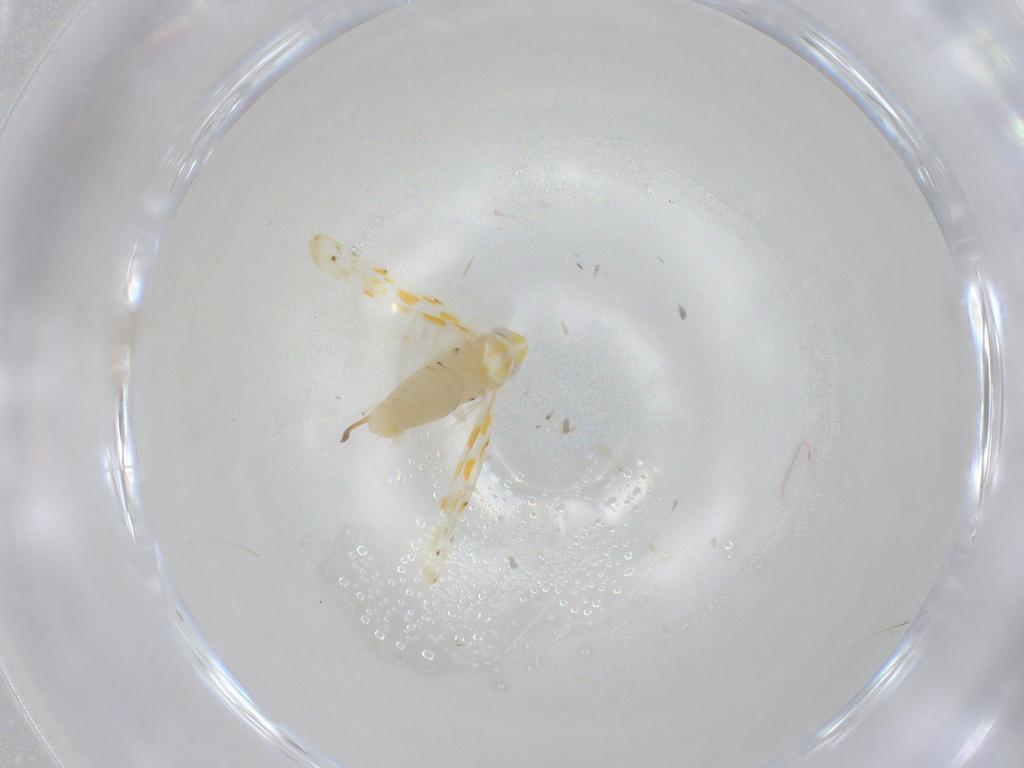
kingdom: Animalia
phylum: Arthropoda
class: Insecta
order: Hemiptera
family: Cicadellidae
